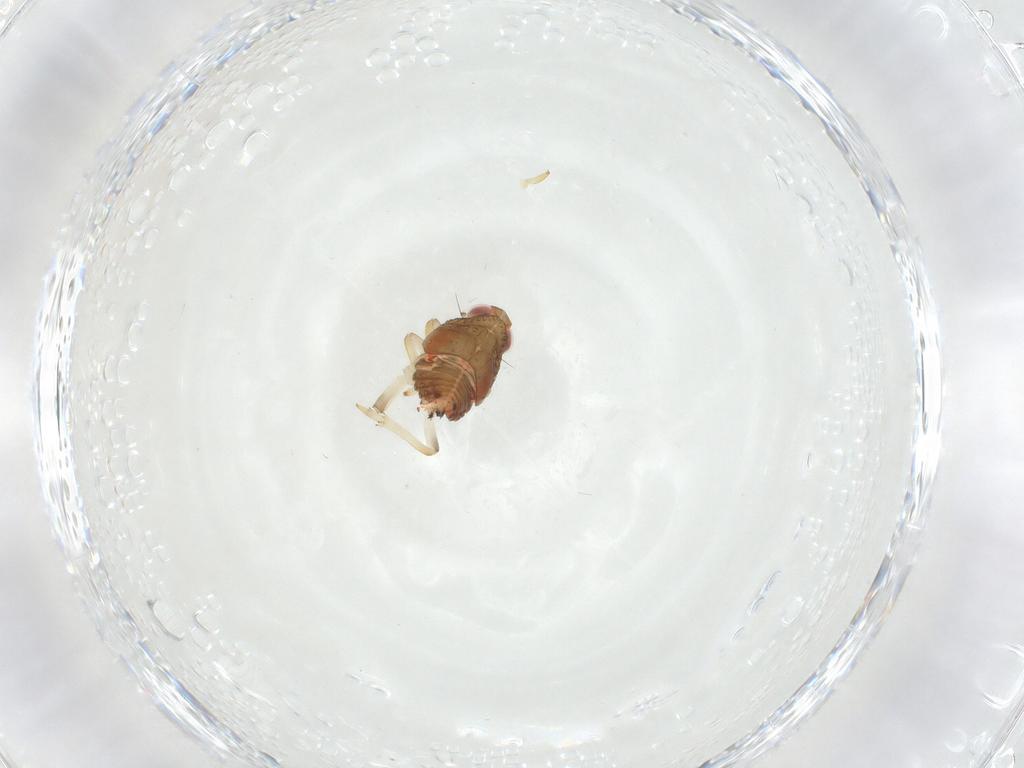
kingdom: Animalia
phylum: Arthropoda
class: Insecta
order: Hemiptera
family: Issidae
